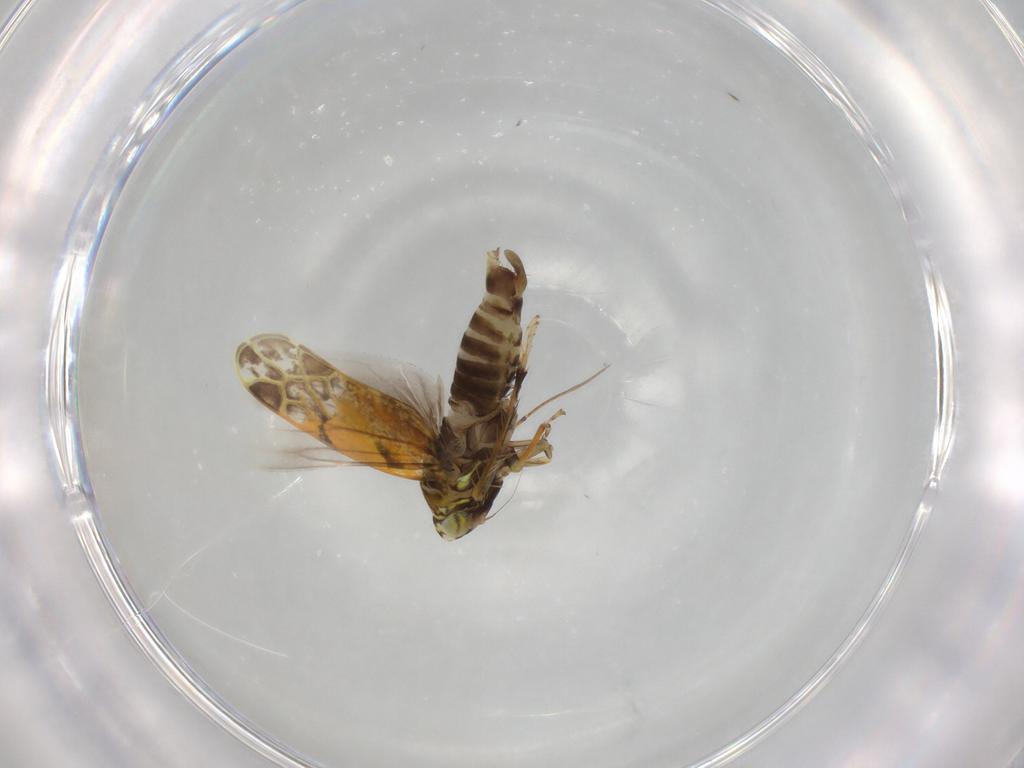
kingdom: Animalia
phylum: Arthropoda
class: Insecta
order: Hemiptera
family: Cicadellidae
